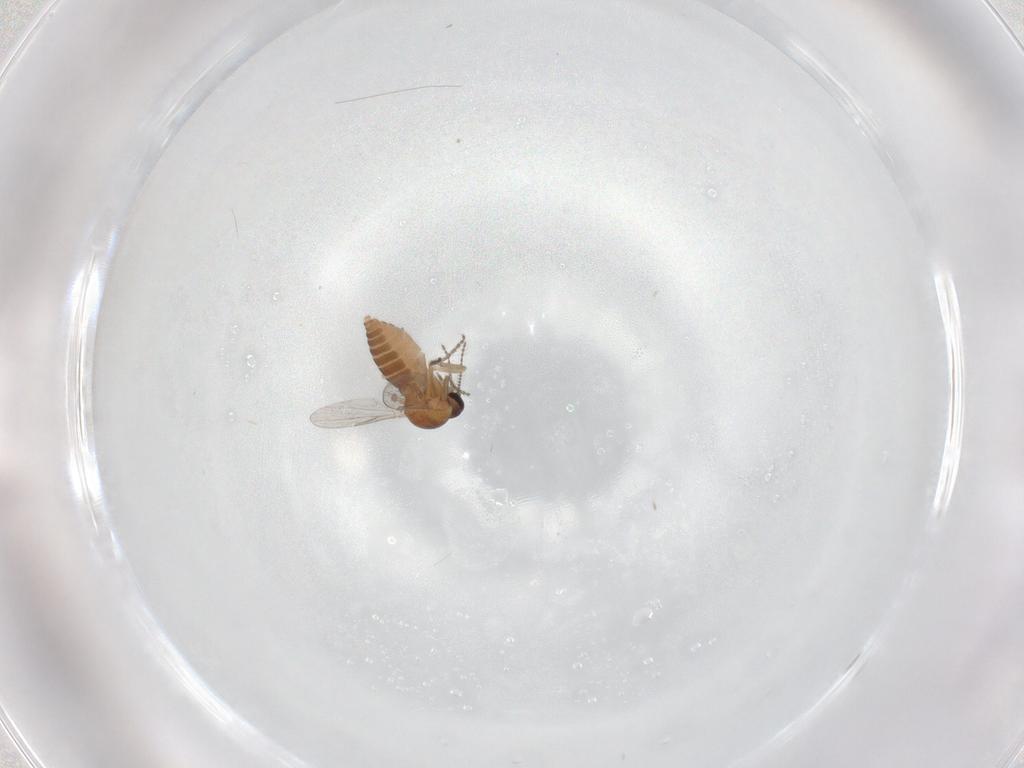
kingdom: Animalia
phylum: Arthropoda
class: Insecta
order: Diptera
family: Ceratopogonidae
